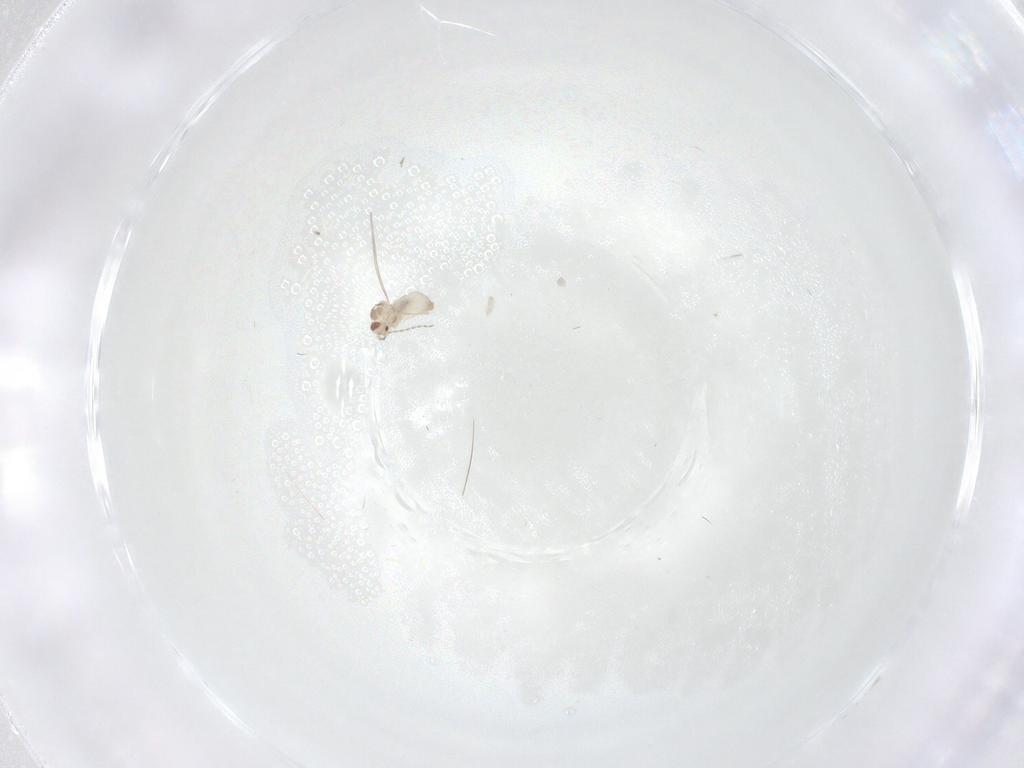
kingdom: Animalia
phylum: Arthropoda
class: Insecta
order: Diptera
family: Cecidomyiidae
